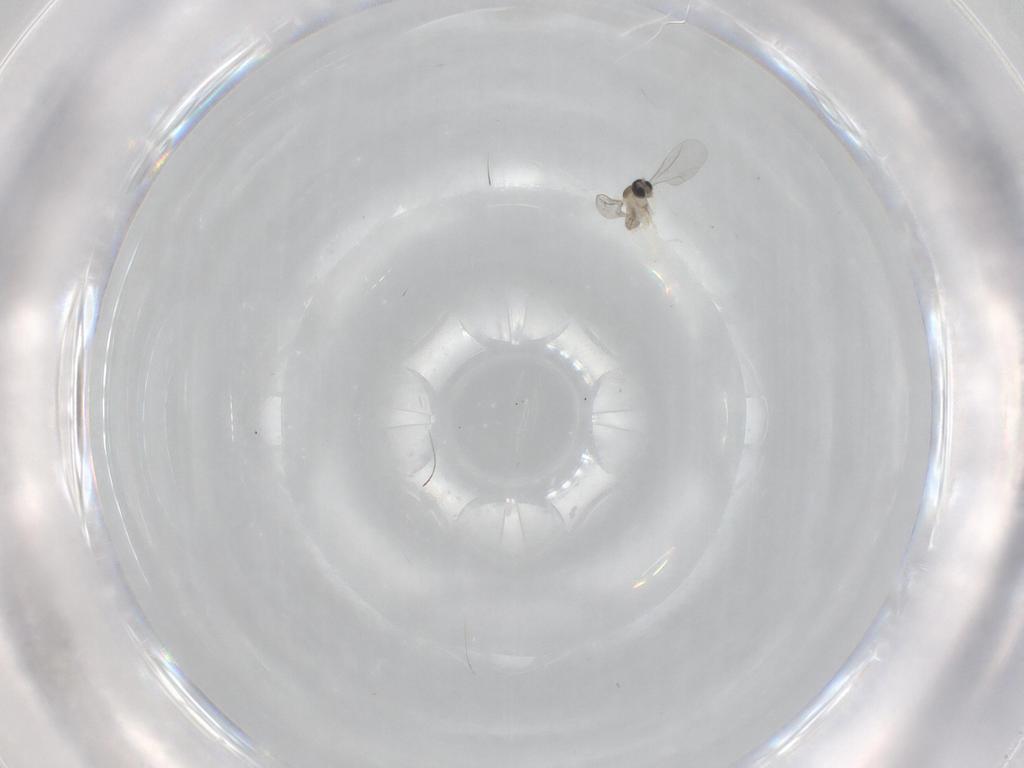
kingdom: Animalia
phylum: Arthropoda
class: Insecta
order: Diptera
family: Cecidomyiidae
